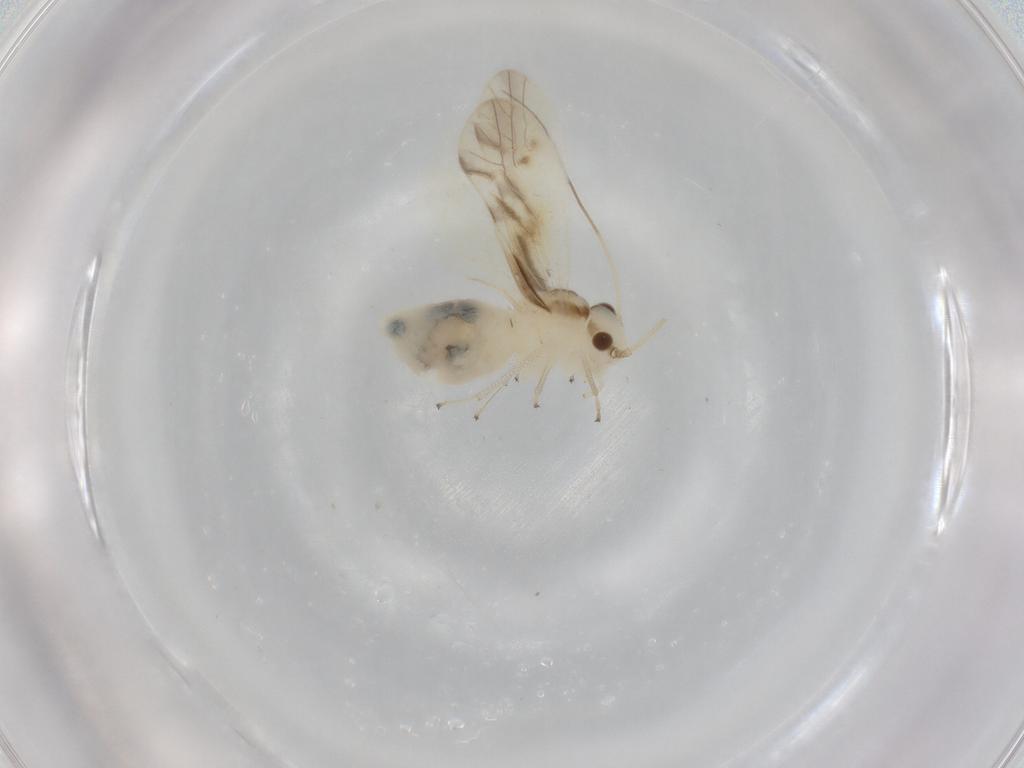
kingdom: Animalia
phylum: Arthropoda
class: Insecta
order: Psocodea
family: Caeciliusidae
